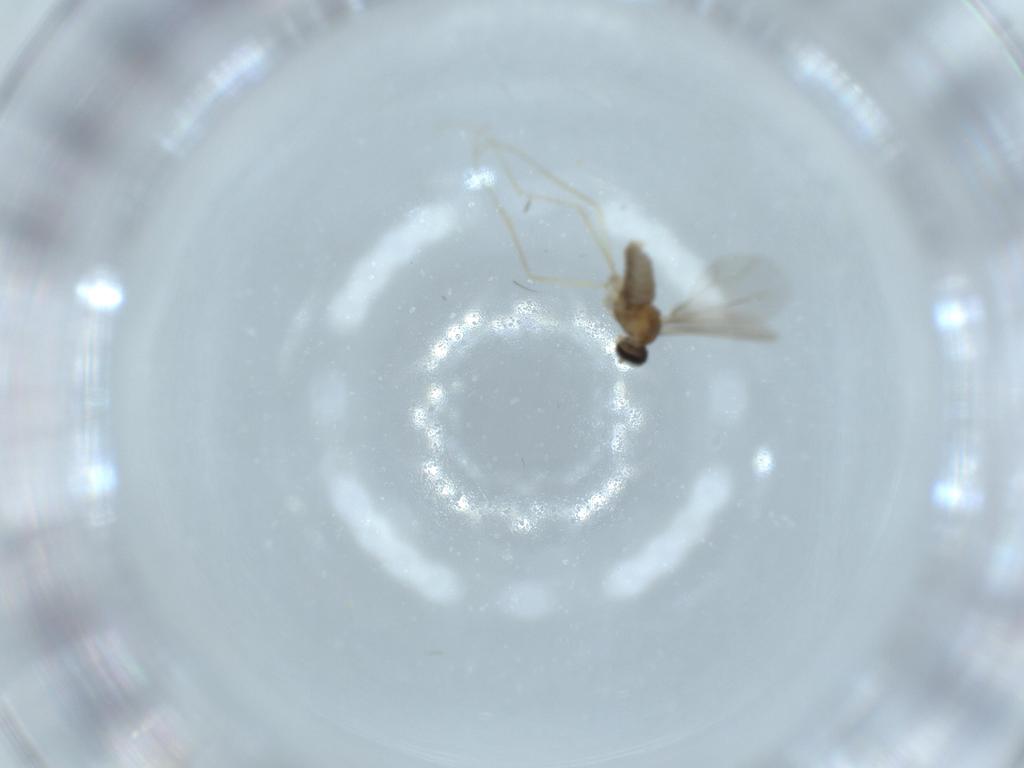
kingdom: Animalia
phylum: Arthropoda
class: Insecta
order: Diptera
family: Cecidomyiidae
